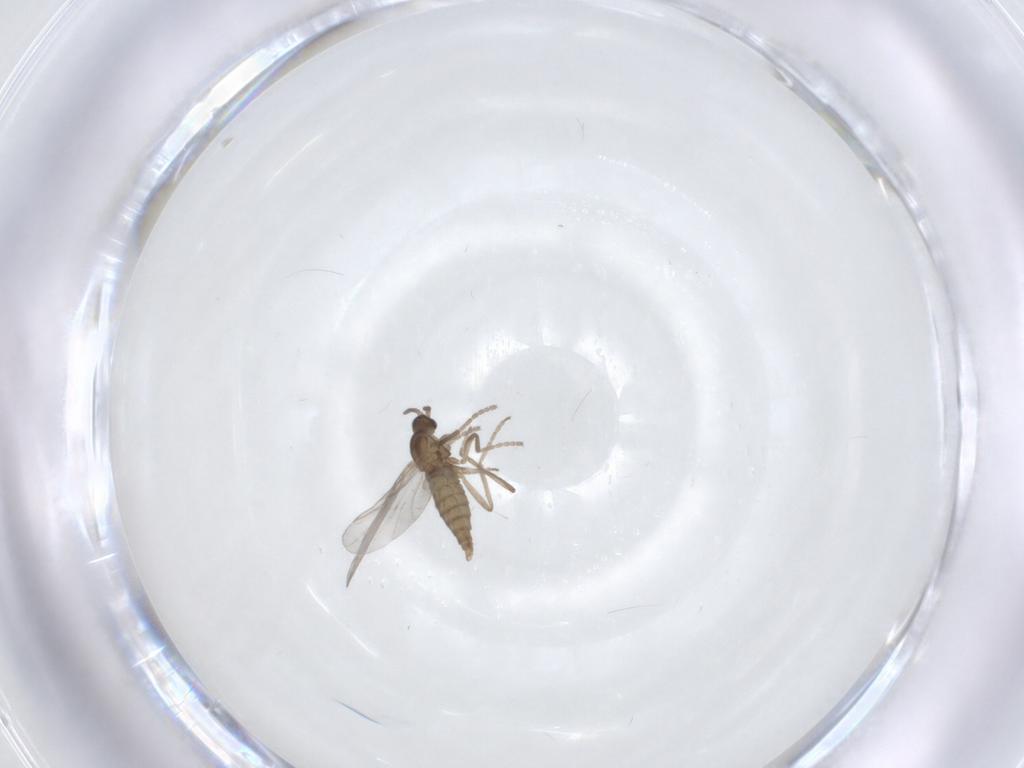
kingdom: Animalia
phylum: Arthropoda
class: Insecta
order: Diptera
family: Cecidomyiidae
